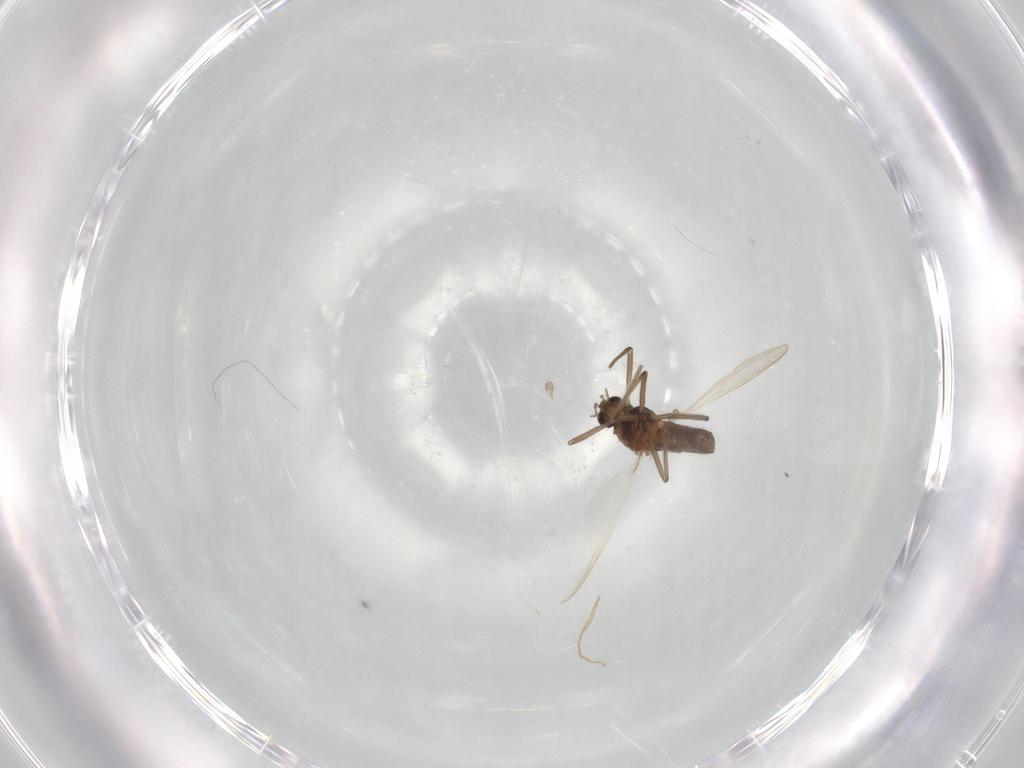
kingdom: Animalia
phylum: Arthropoda
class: Insecta
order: Diptera
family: Chironomidae
